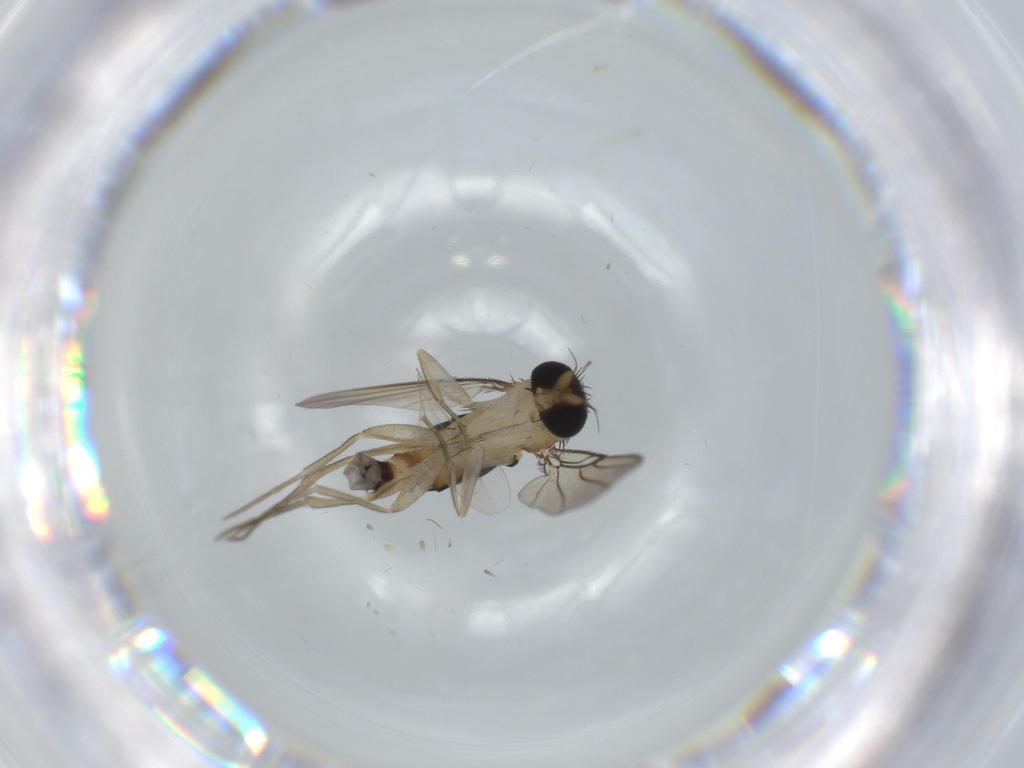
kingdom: Animalia
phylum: Arthropoda
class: Insecta
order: Diptera
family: Phoridae
